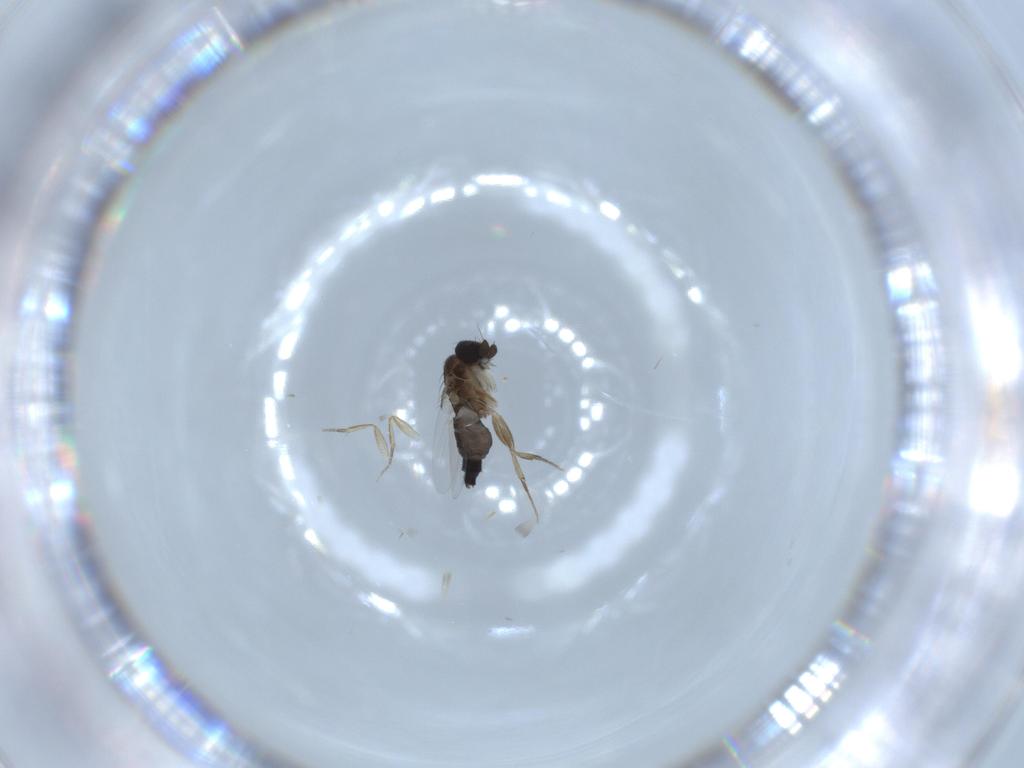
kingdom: Animalia
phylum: Arthropoda
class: Insecta
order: Diptera
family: Phoridae
